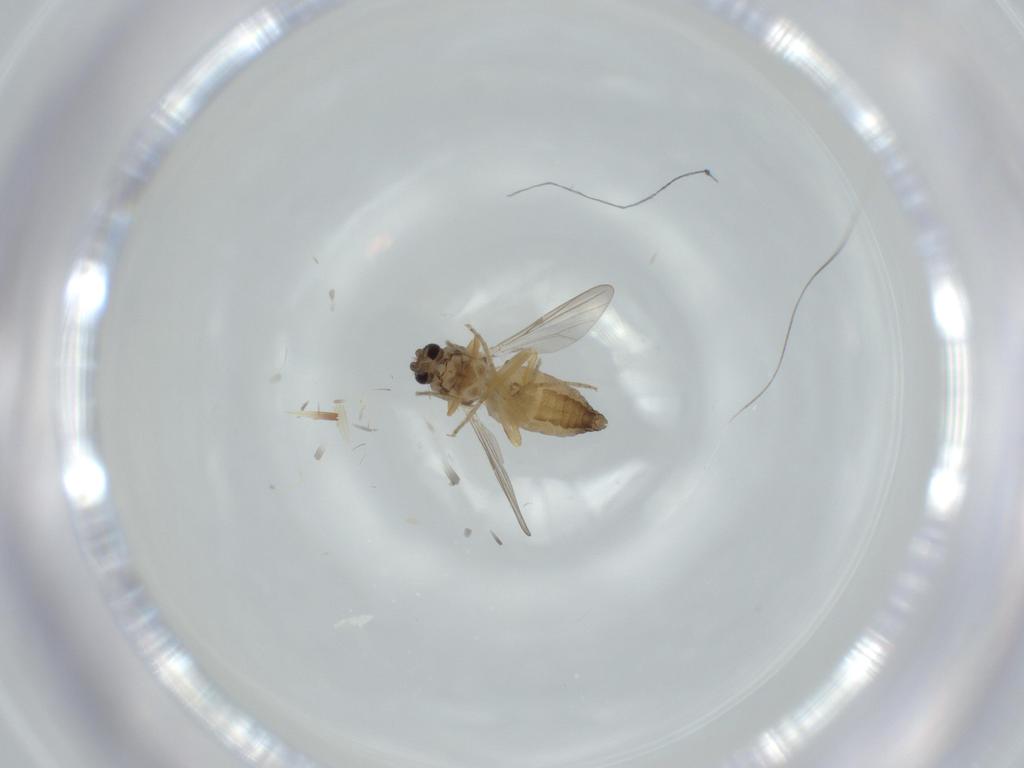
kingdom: Animalia
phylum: Arthropoda
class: Insecta
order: Diptera
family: Ceratopogonidae
